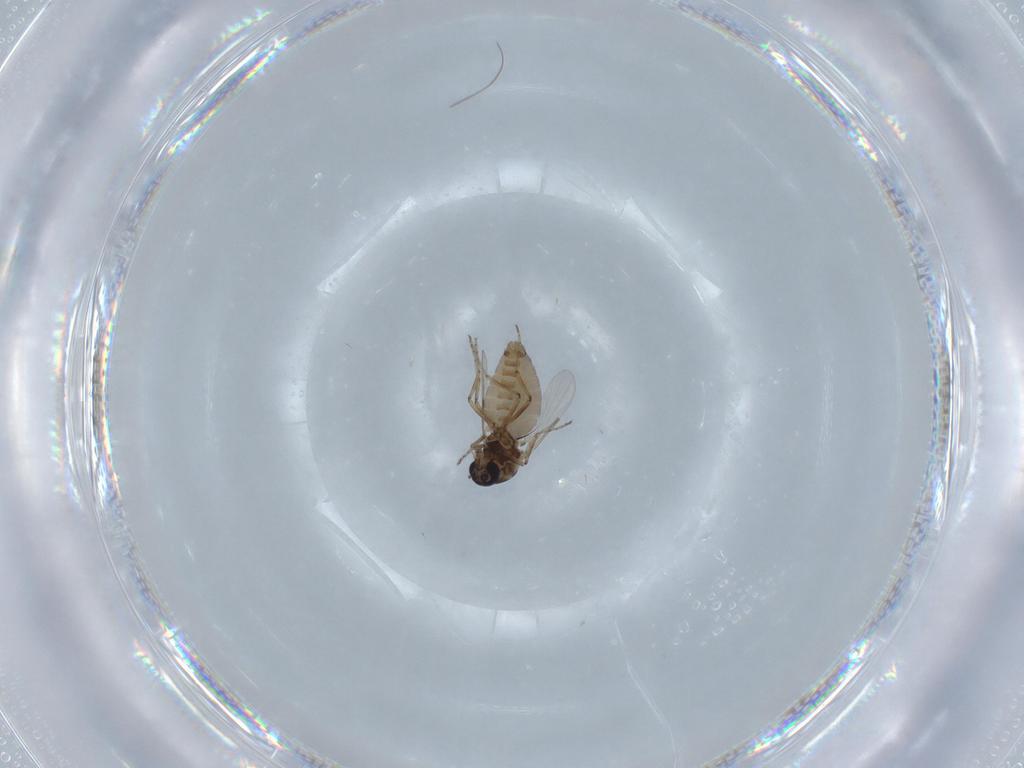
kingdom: Animalia
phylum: Arthropoda
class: Insecta
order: Diptera
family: Ceratopogonidae
